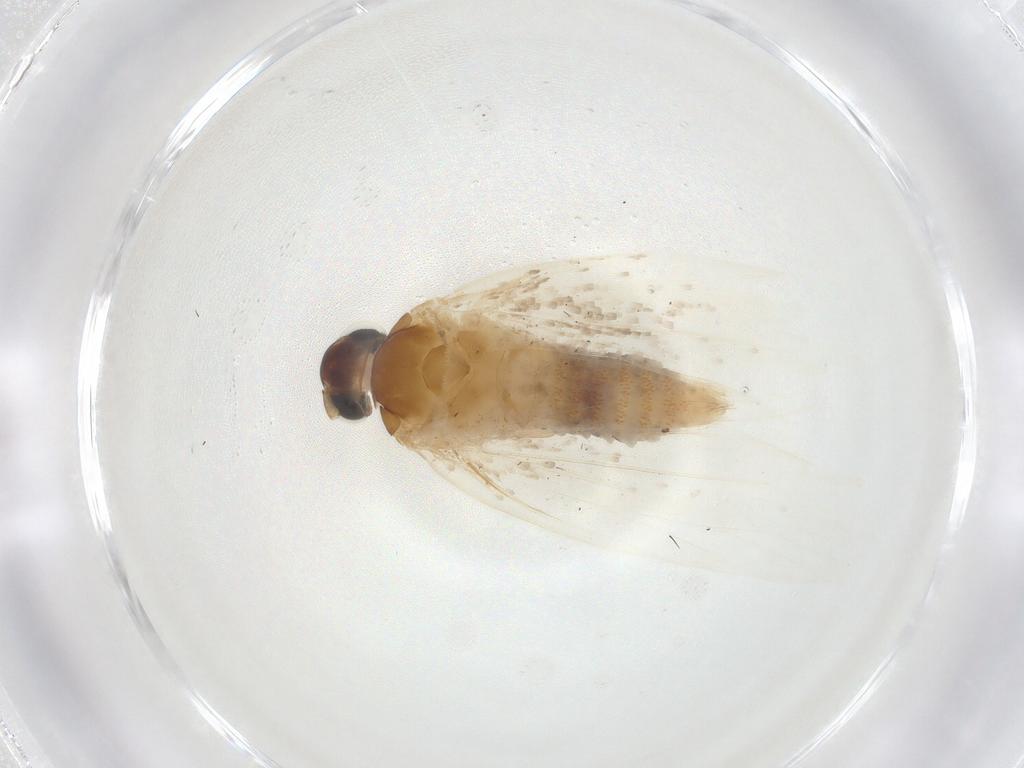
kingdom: Animalia
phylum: Arthropoda
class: Insecta
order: Lepidoptera
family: Oecophoridae
